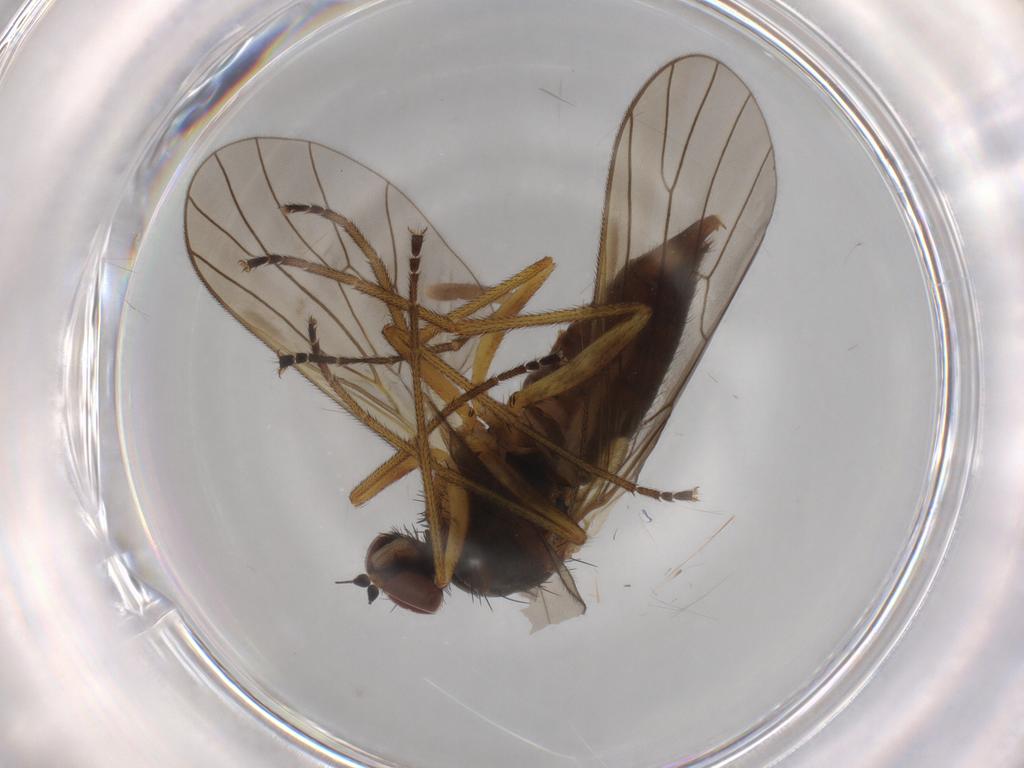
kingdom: Animalia
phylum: Arthropoda
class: Insecta
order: Diptera
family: Brachystomatidae
